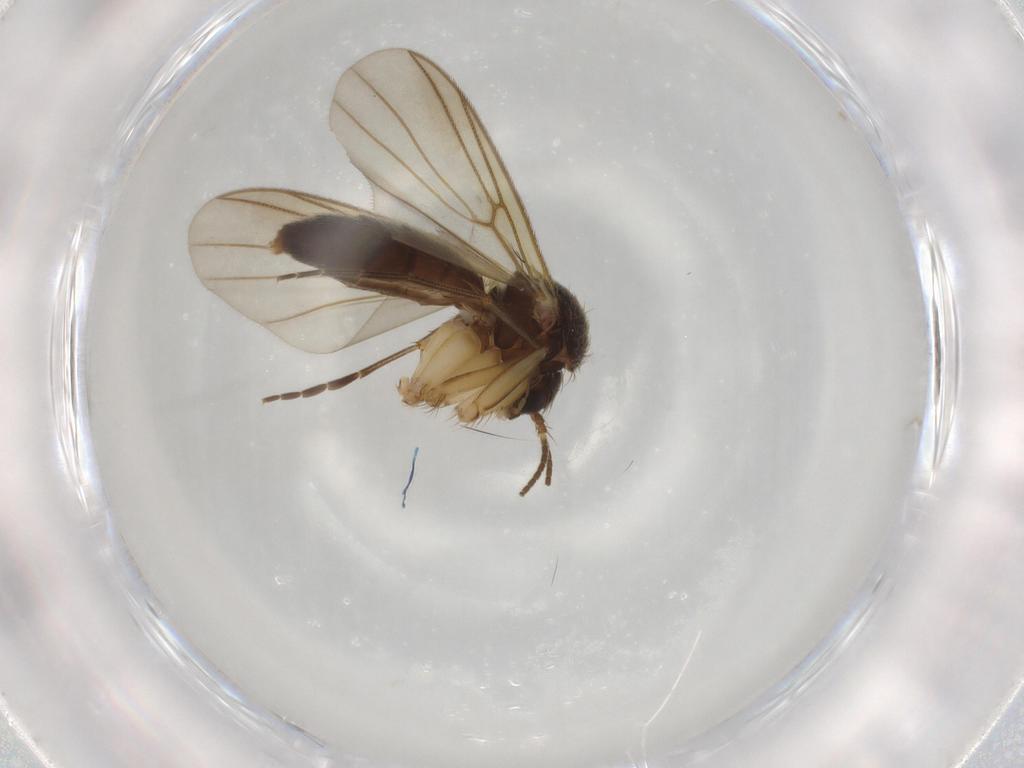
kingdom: Animalia
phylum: Arthropoda
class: Insecta
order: Diptera
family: Mycetophilidae
